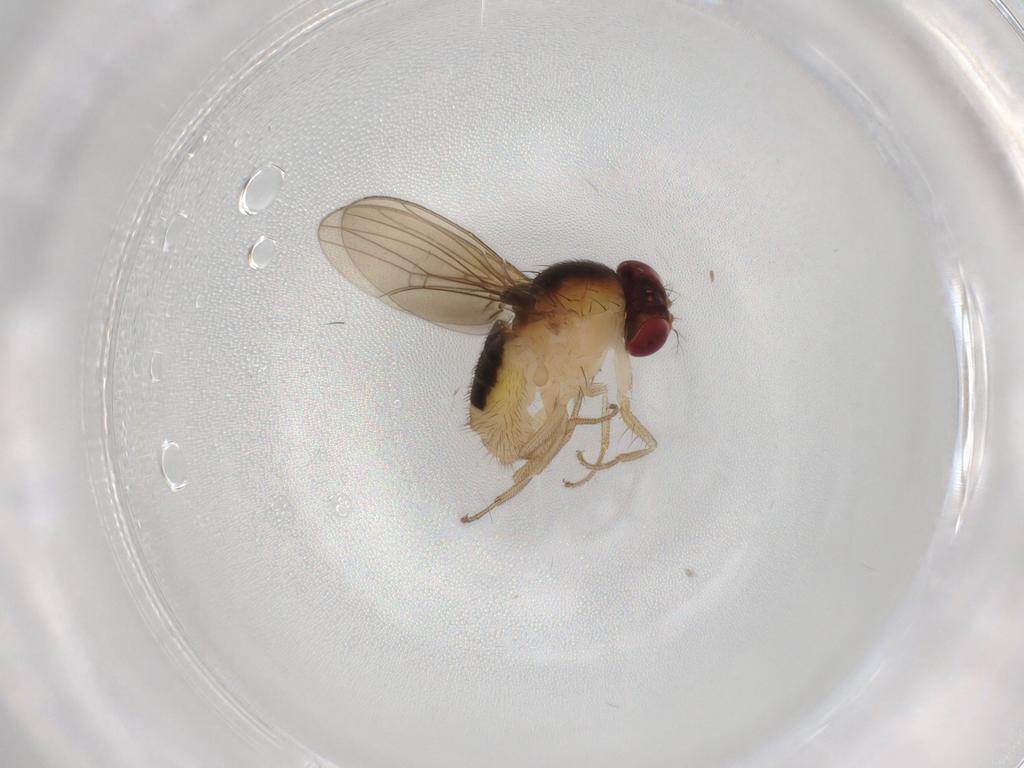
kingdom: Animalia
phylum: Arthropoda
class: Insecta
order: Diptera
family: Drosophilidae
